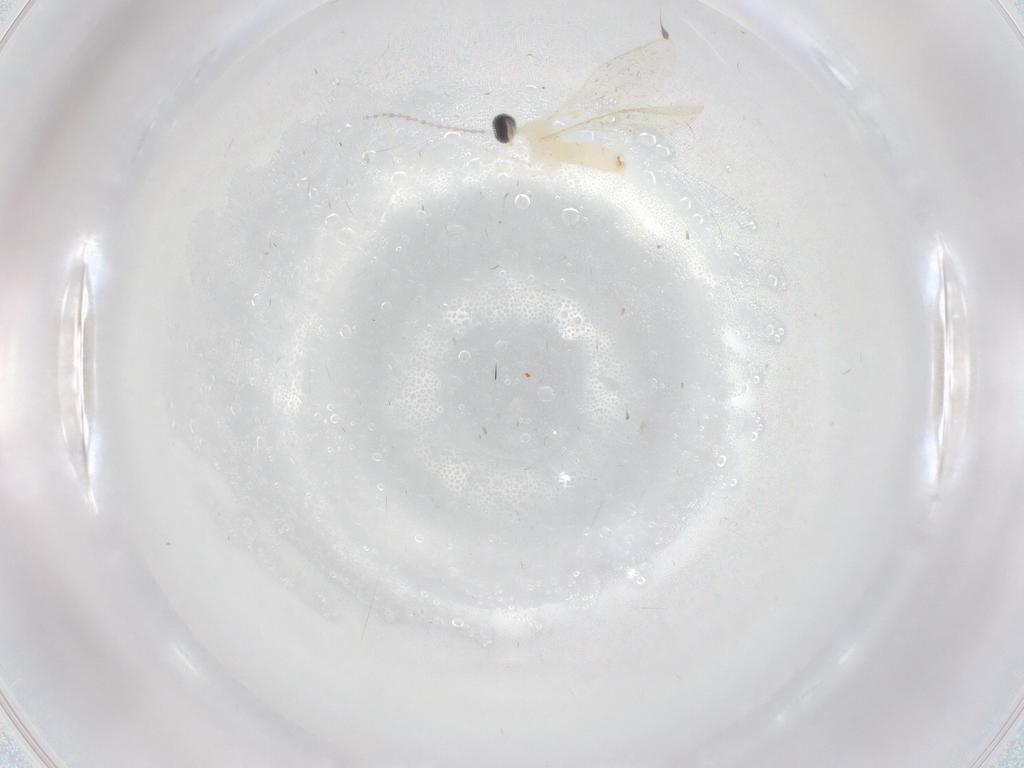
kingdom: Animalia
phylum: Arthropoda
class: Insecta
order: Diptera
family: Cecidomyiidae
